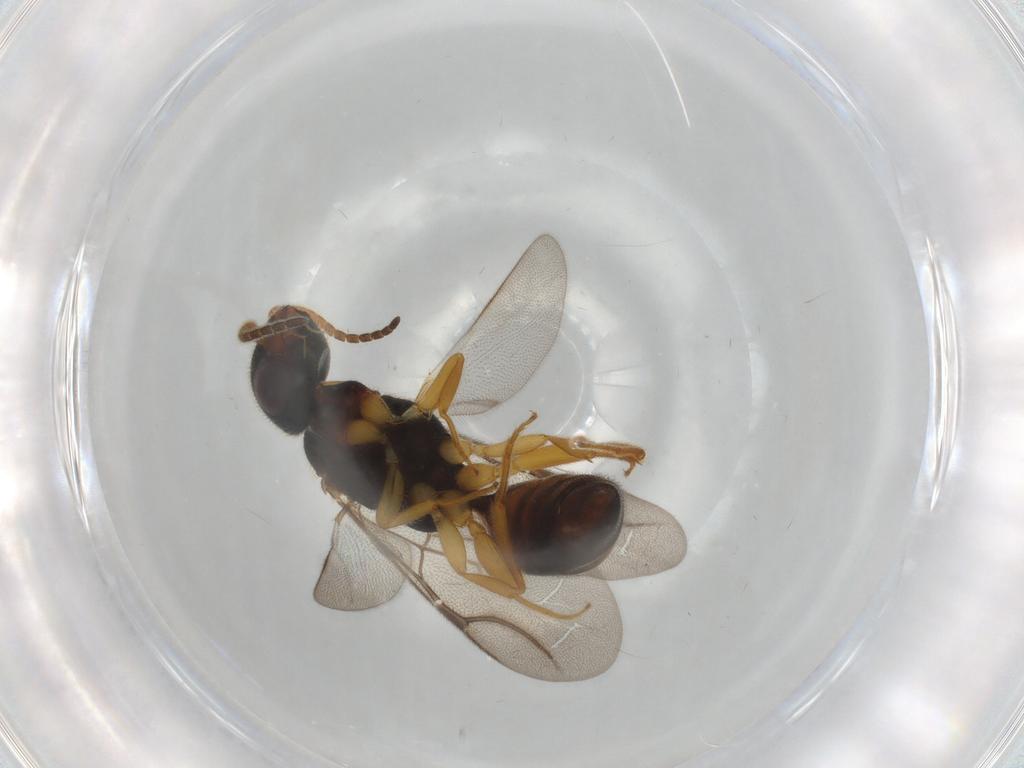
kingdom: Animalia
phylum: Arthropoda
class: Insecta
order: Hymenoptera
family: Bethylidae
